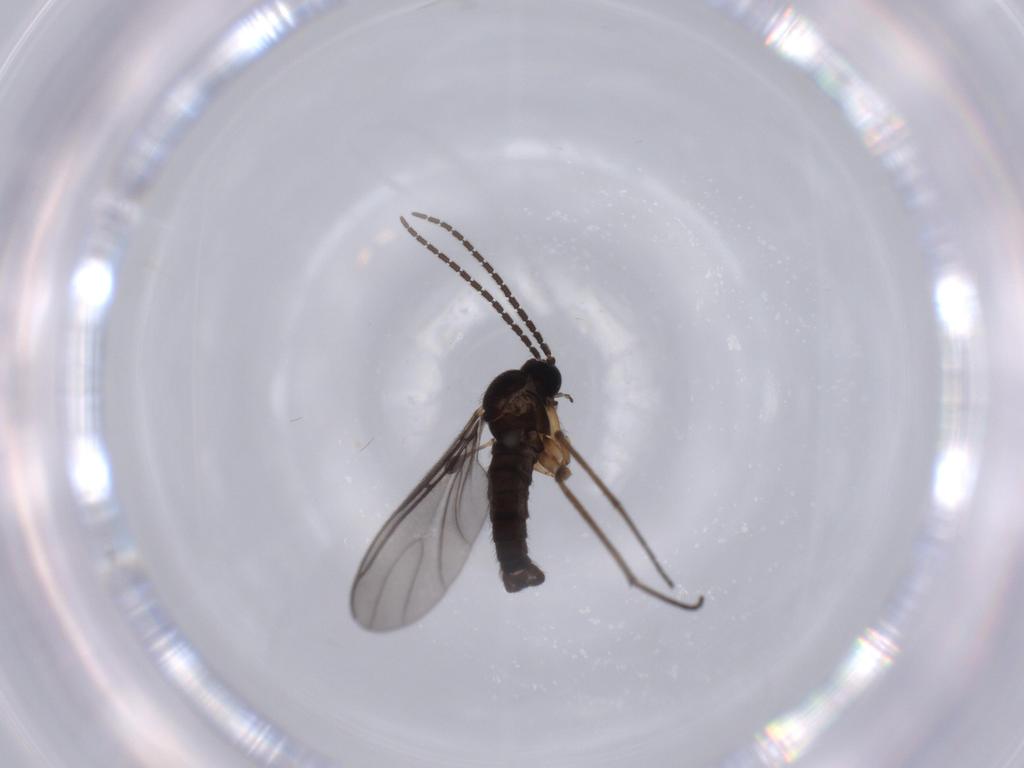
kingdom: Animalia
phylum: Arthropoda
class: Insecta
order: Diptera
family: Sciaridae
